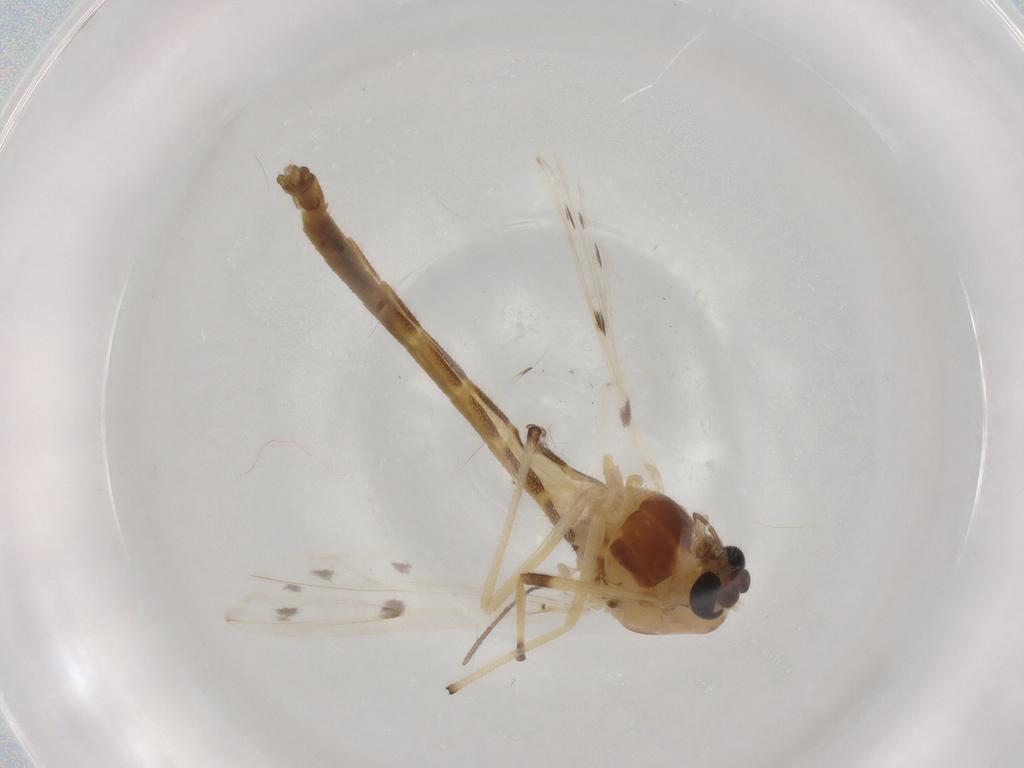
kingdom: Animalia
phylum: Arthropoda
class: Insecta
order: Diptera
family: Chironomidae
